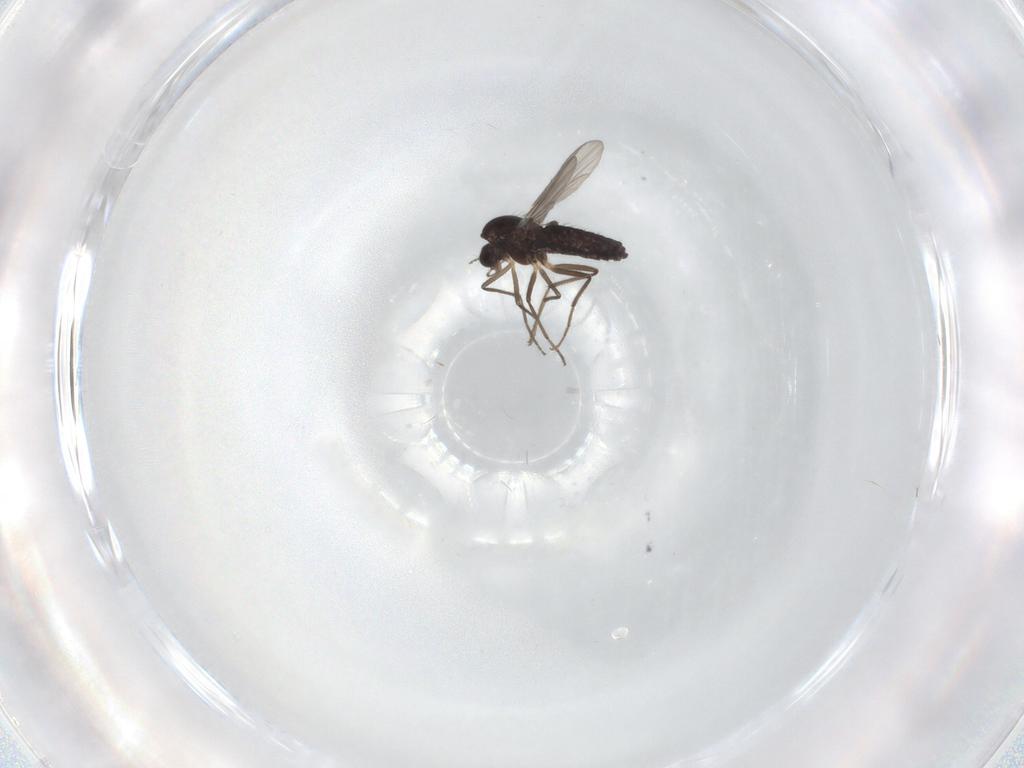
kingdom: Animalia
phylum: Arthropoda
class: Insecta
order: Diptera
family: Chironomidae
